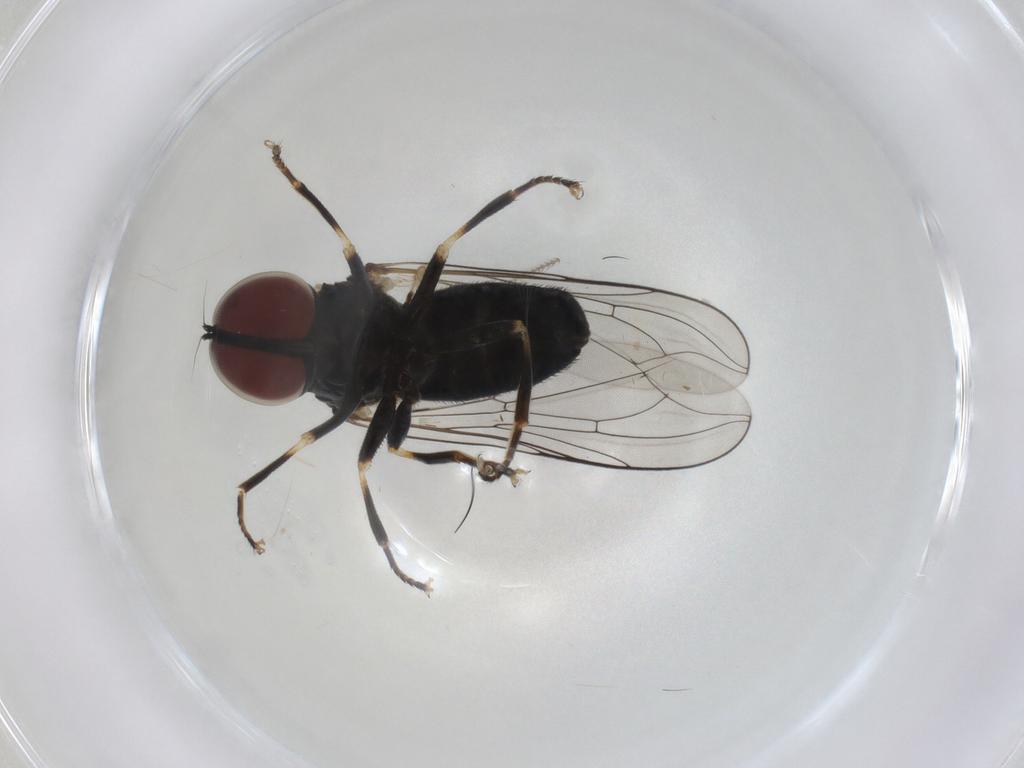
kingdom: Animalia
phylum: Arthropoda
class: Insecta
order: Diptera
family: Pipunculidae
